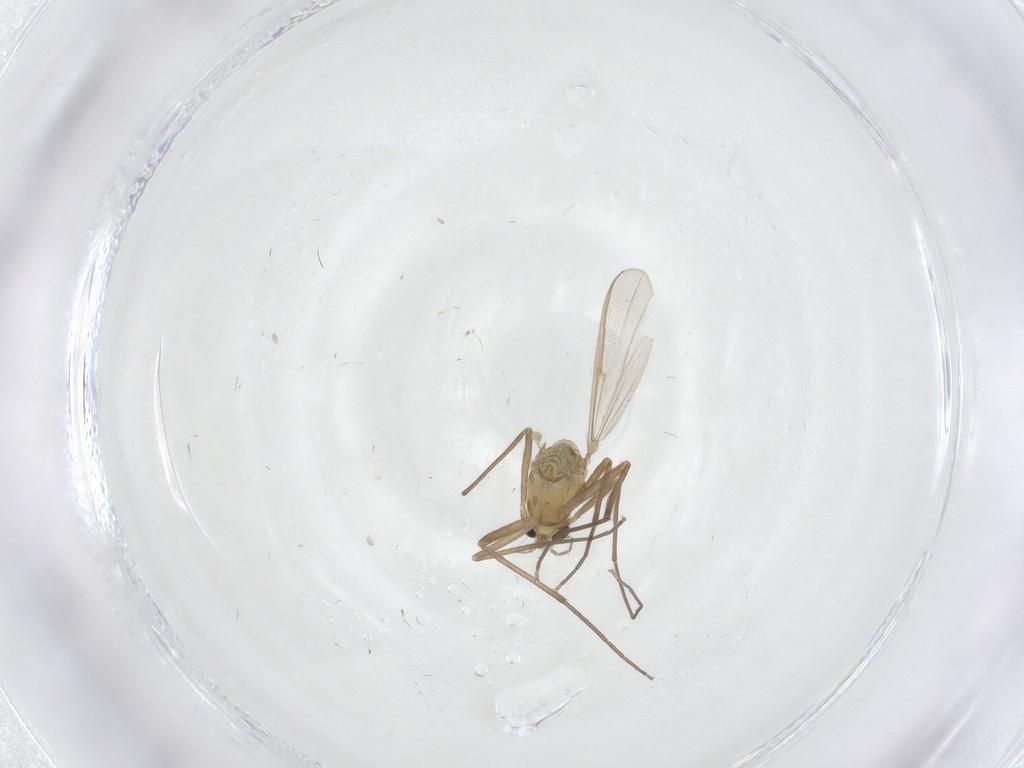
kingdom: Animalia
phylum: Arthropoda
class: Insecta
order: Diptera
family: Chironomidae
